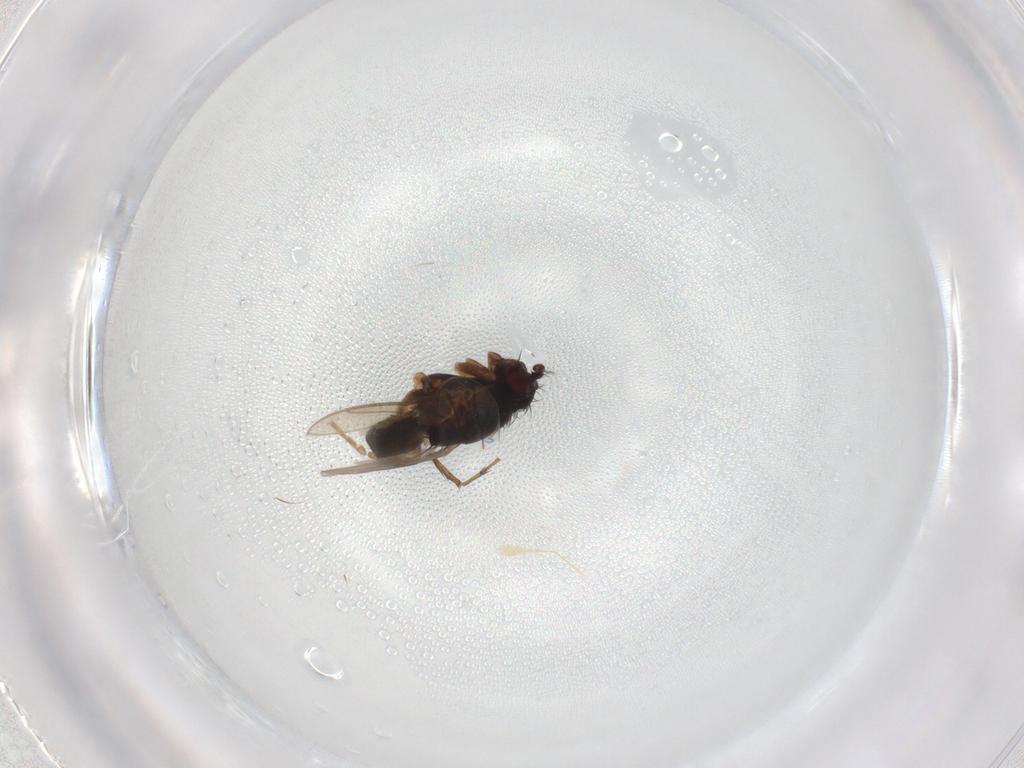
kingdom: Animalia
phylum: Arthropoda
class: Insecta
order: Diptera
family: Sphaeroceridae
